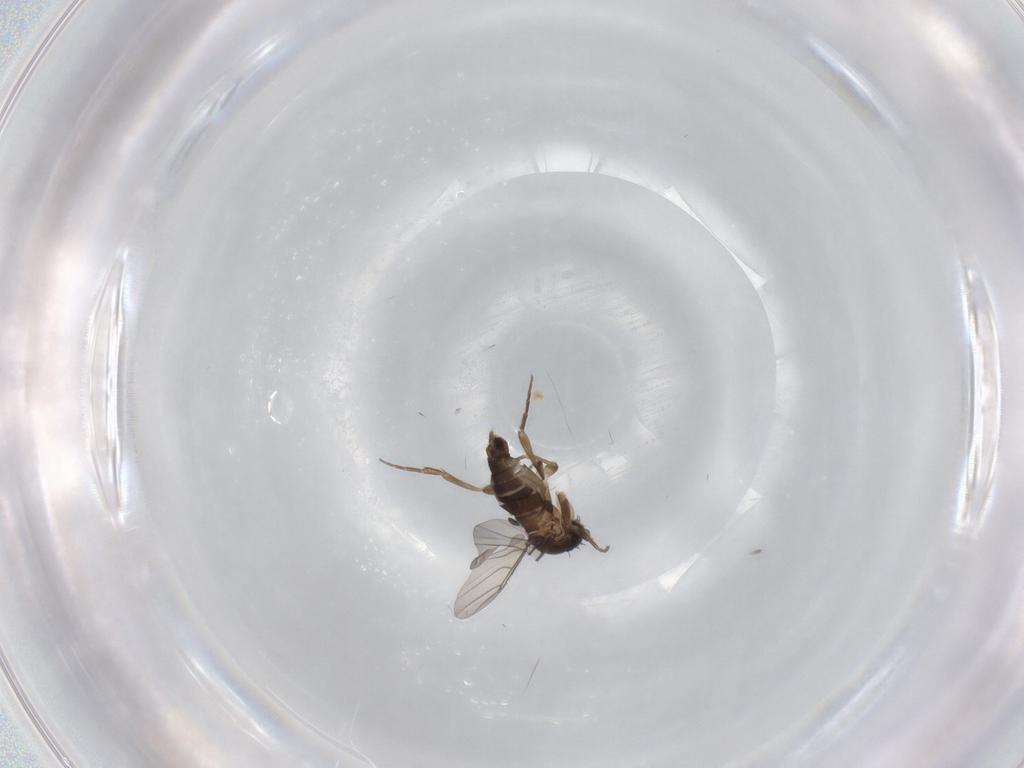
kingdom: Animalia
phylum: Arthropoda
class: Insecta
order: Diptera
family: Phoridae
